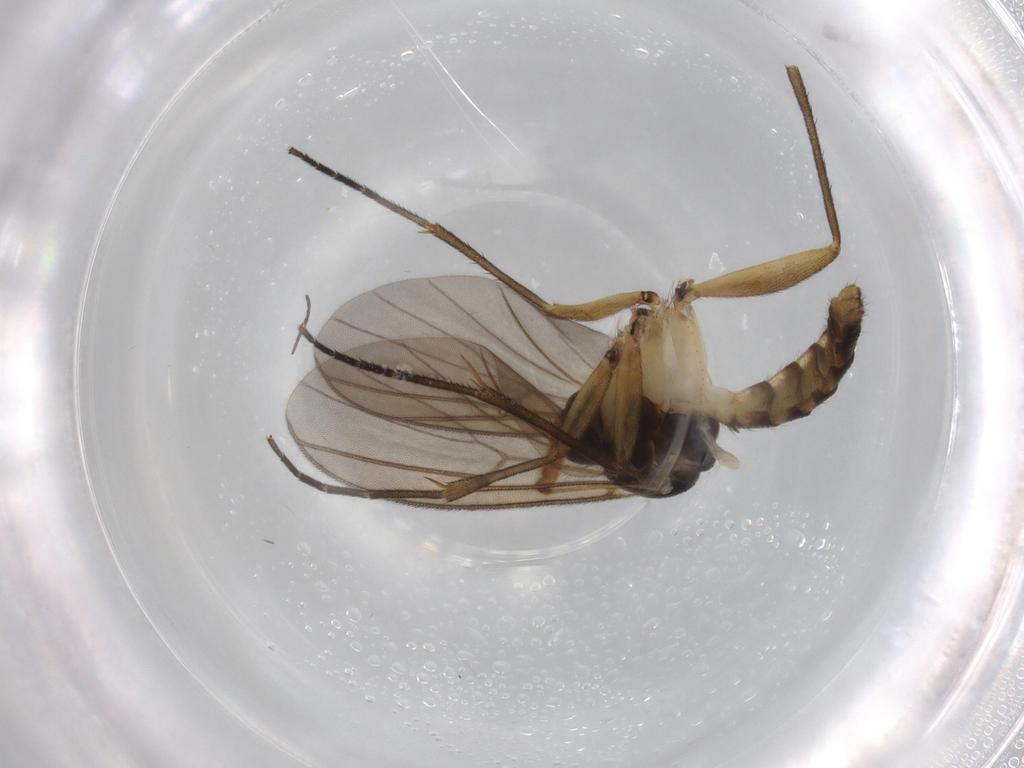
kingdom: Animalia
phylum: Arthropoda
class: Insecta
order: Diptera
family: Cecidomyiidae
